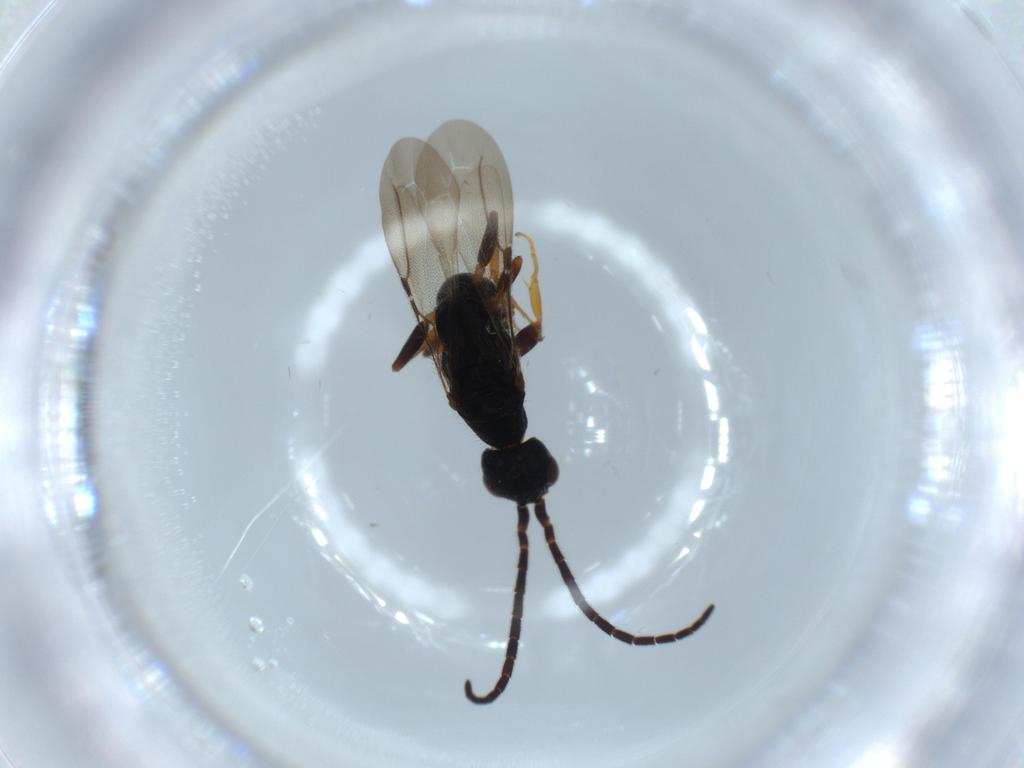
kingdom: Animalia
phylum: Arthropoda
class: Insecta
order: Hymenoptera
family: Bethylidae
